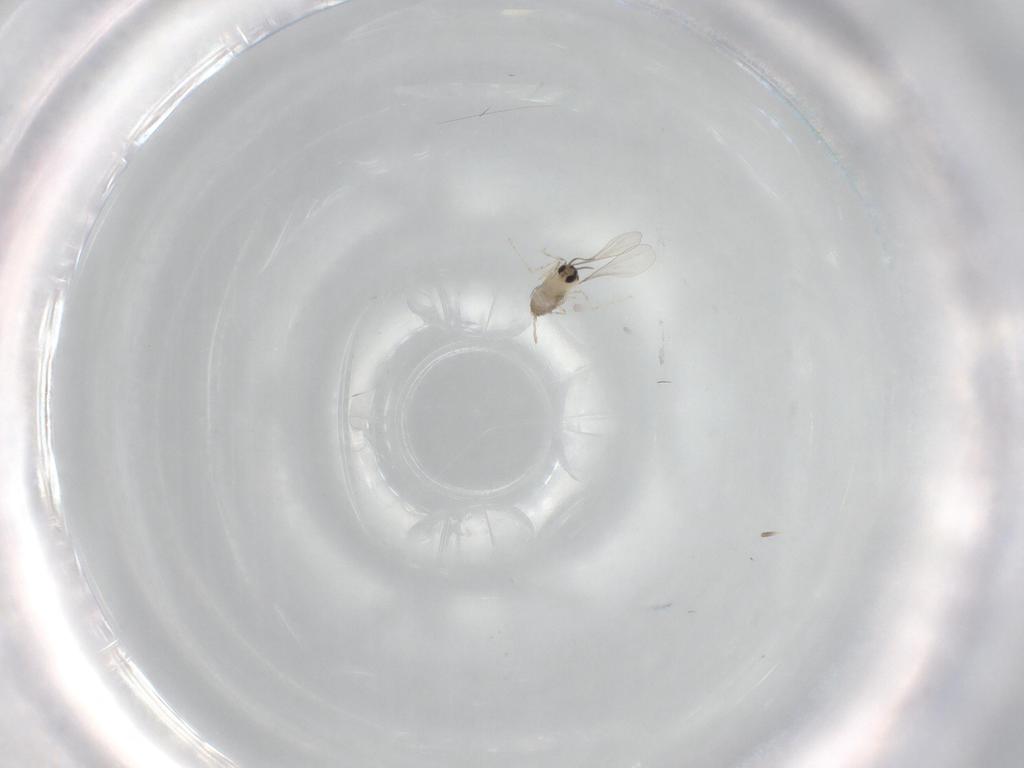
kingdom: Animalia
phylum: Arthropoda
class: Insecta
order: Diptera
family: Cecidomyiidae
